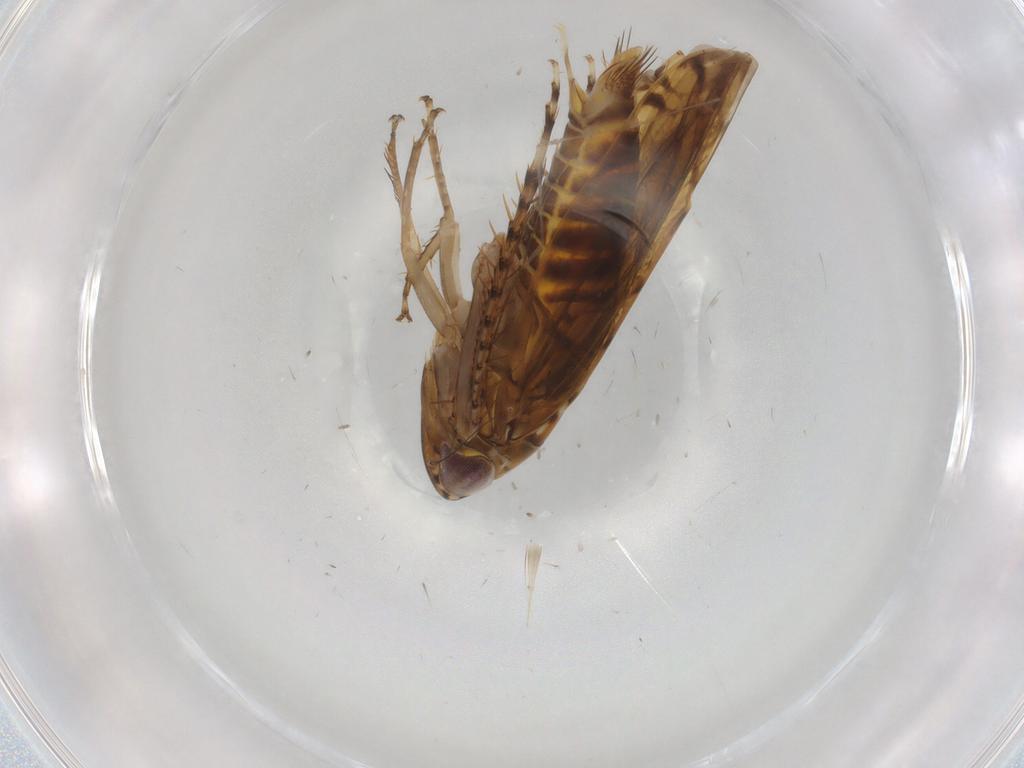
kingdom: Animalia
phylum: Arthropoda
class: Insecta
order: Hemiptera
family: Cicadellidae
